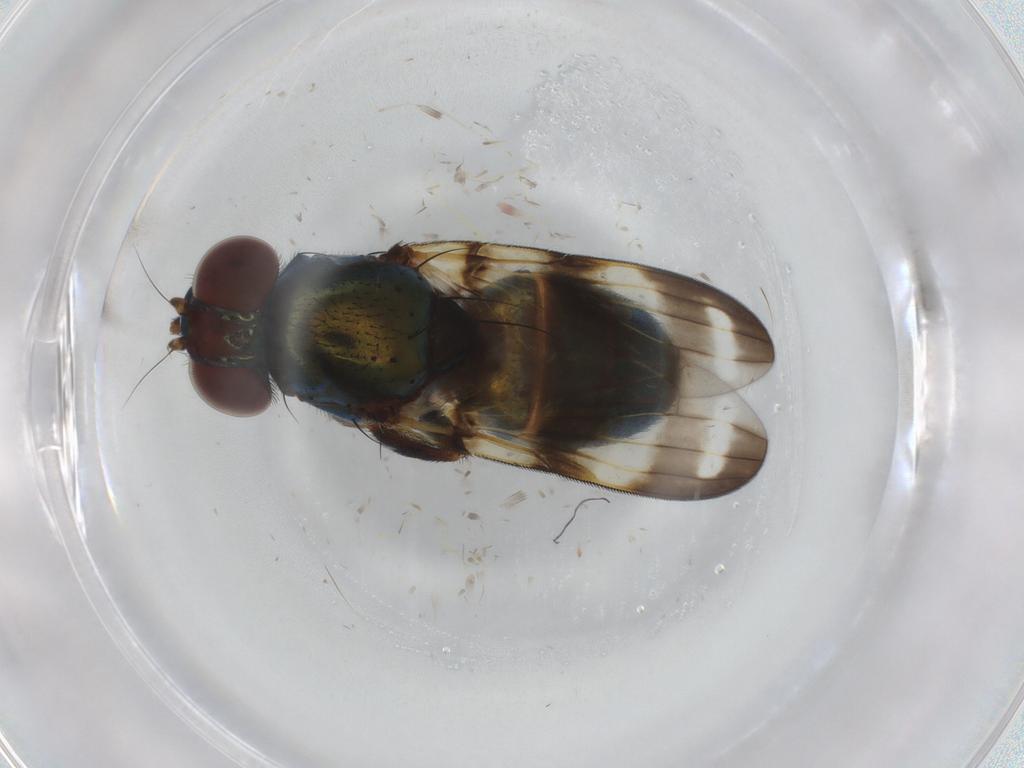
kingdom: Animalia
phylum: Arthropoda
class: Insecta
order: Diptera
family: Ulidiidae
